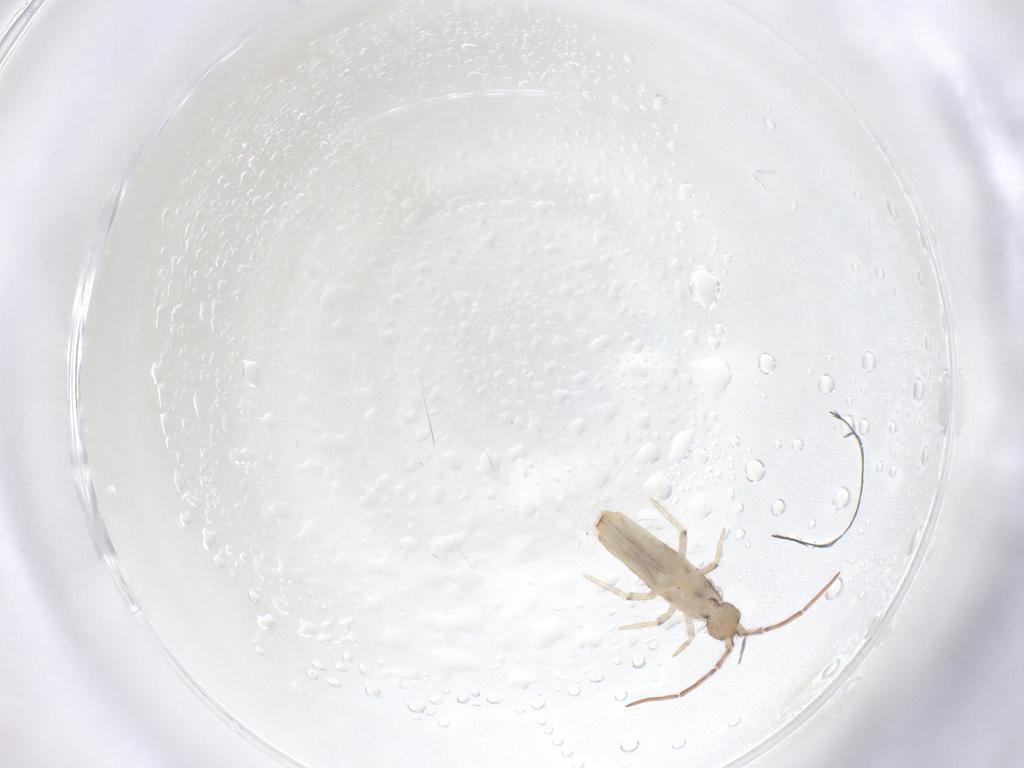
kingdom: Animalia
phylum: Arthropoda
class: Collembola
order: Entomobryomorpha
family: Entomobryidae
